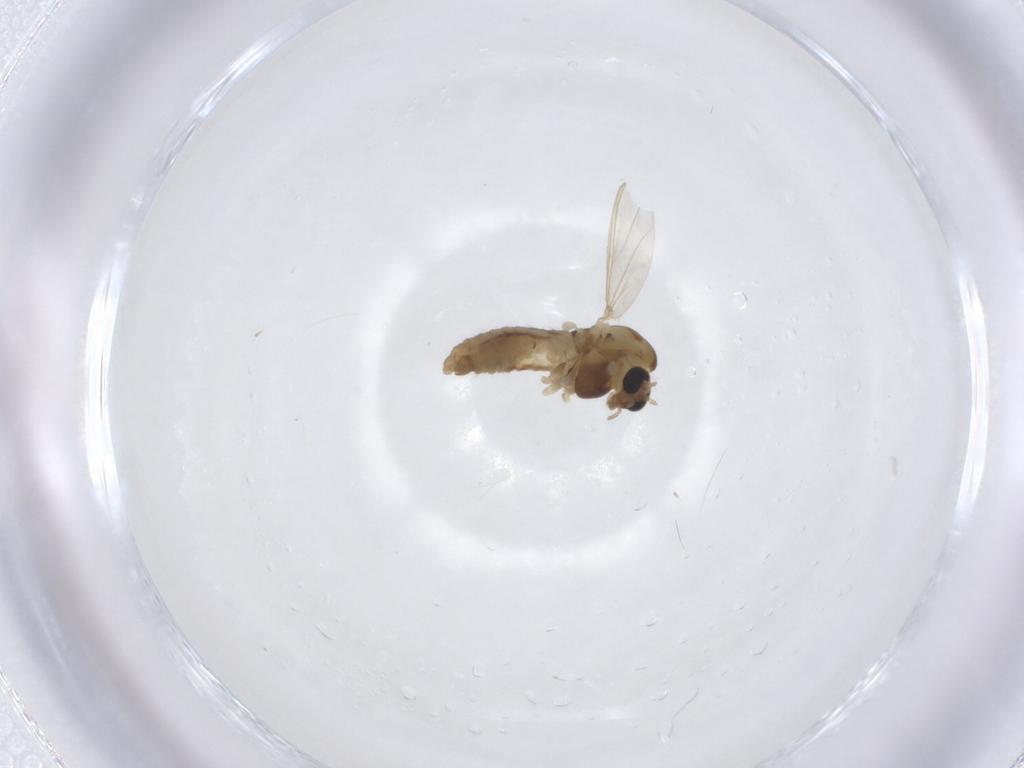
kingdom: Animalia
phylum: Arthropoda
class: Insecta
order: Diptera
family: Chironomidae
